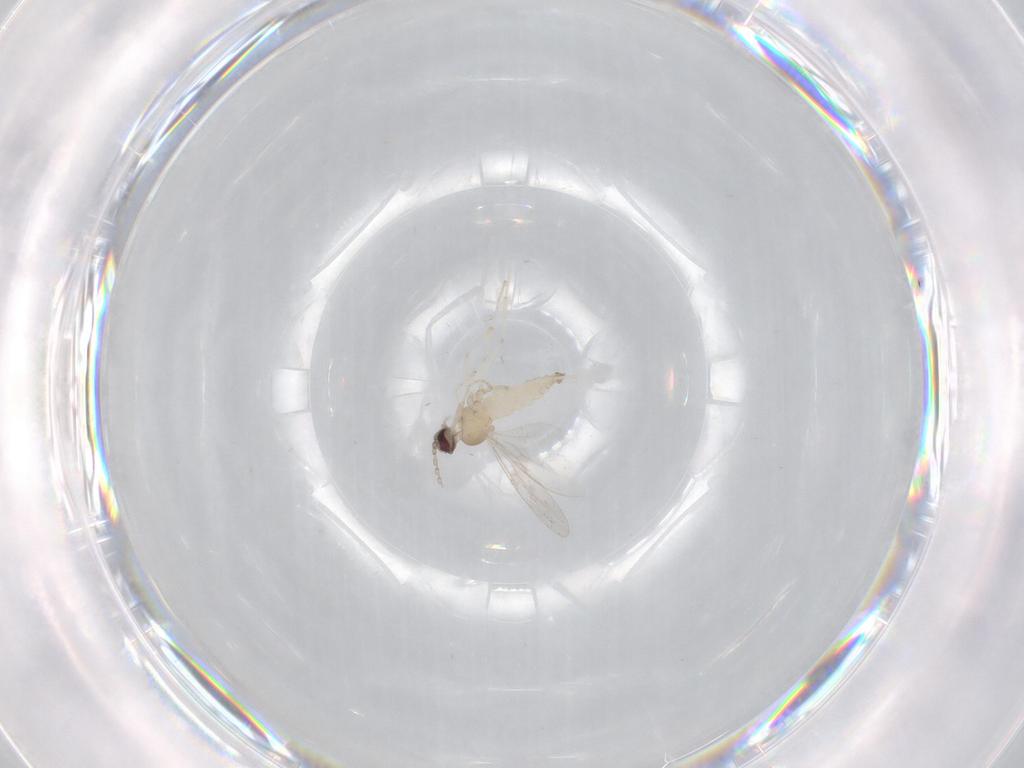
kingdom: Animalia
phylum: Arthropoda
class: Insecta
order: Diptera
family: Cecidomyiidae
